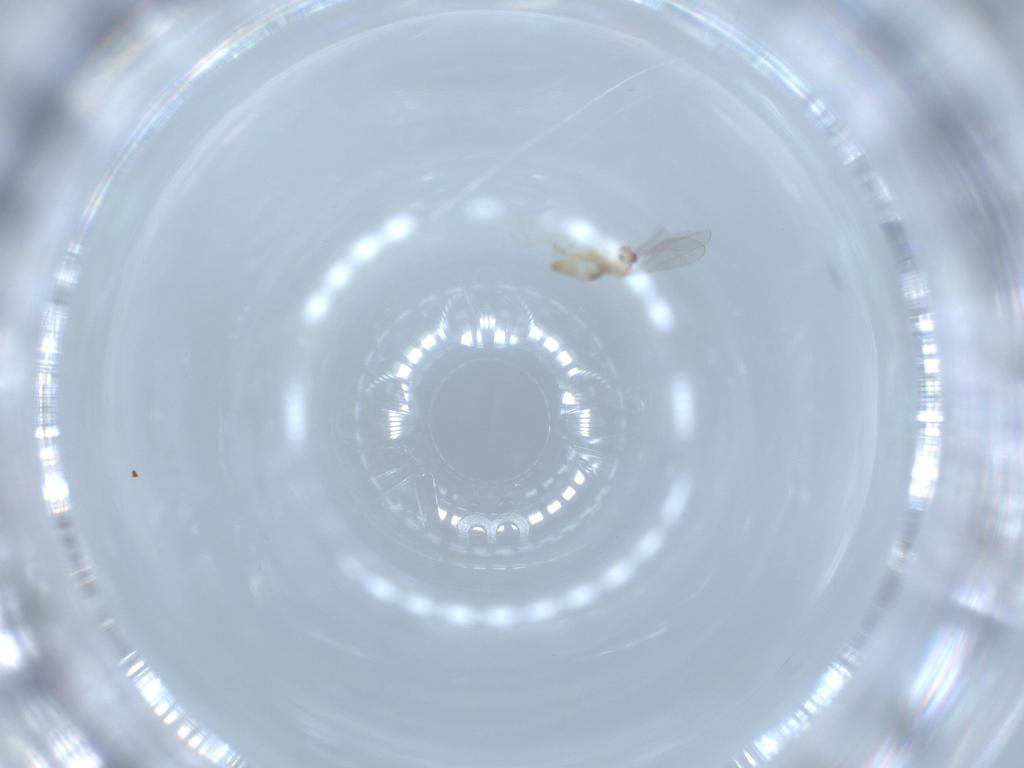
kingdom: Animalia
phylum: Arthropoda
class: Insecta
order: Diptera
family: Cecidomyiidae
